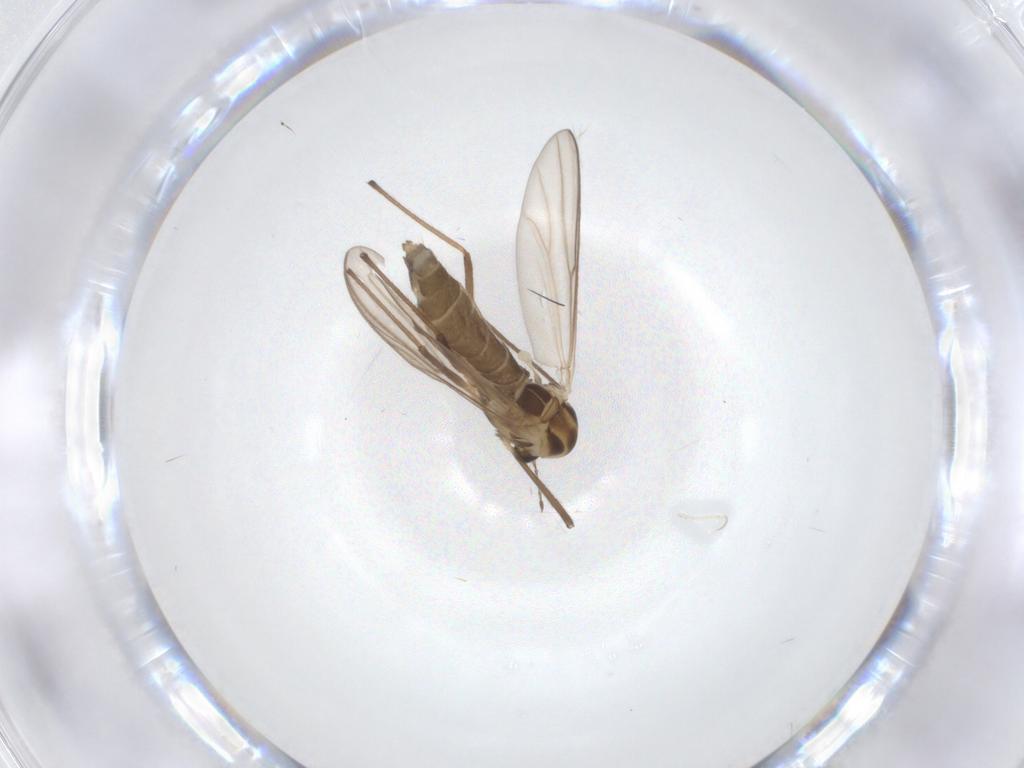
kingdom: Animalia
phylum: Arthropoda
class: Insecta
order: Diptera
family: Chironomidae
